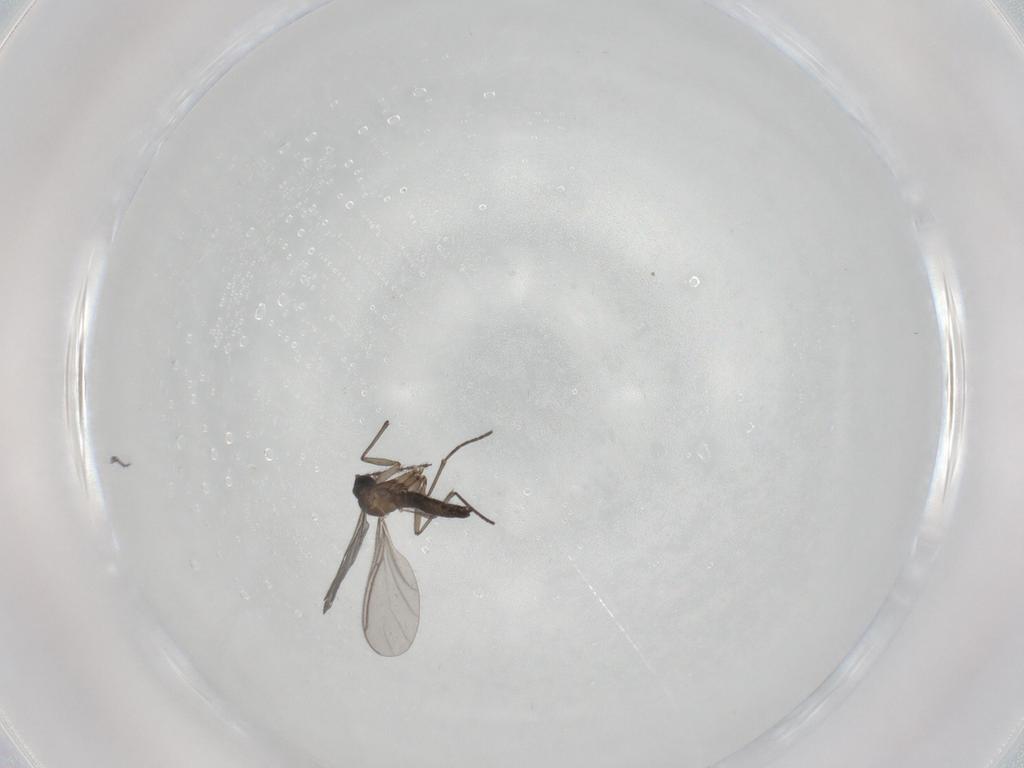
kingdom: Animalia
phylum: Arthropoda
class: Insecta
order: Diptera
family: Sciaridae
